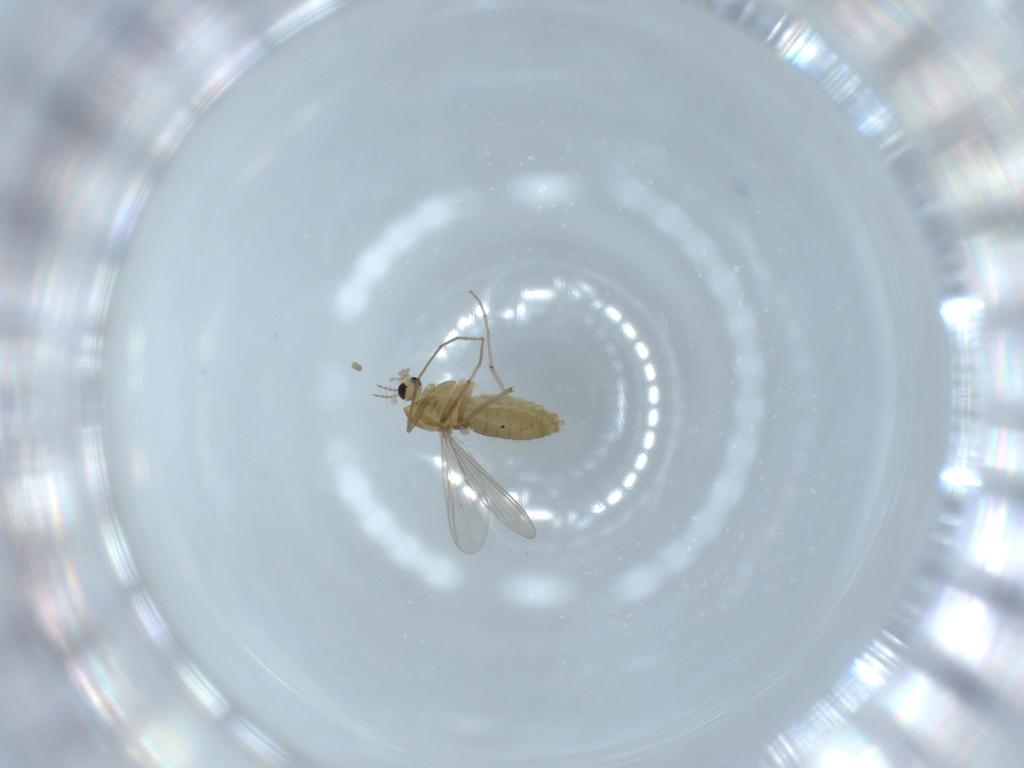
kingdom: Animalia
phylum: Arthropoda
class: Insecta
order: Diptera
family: Chironomidae
